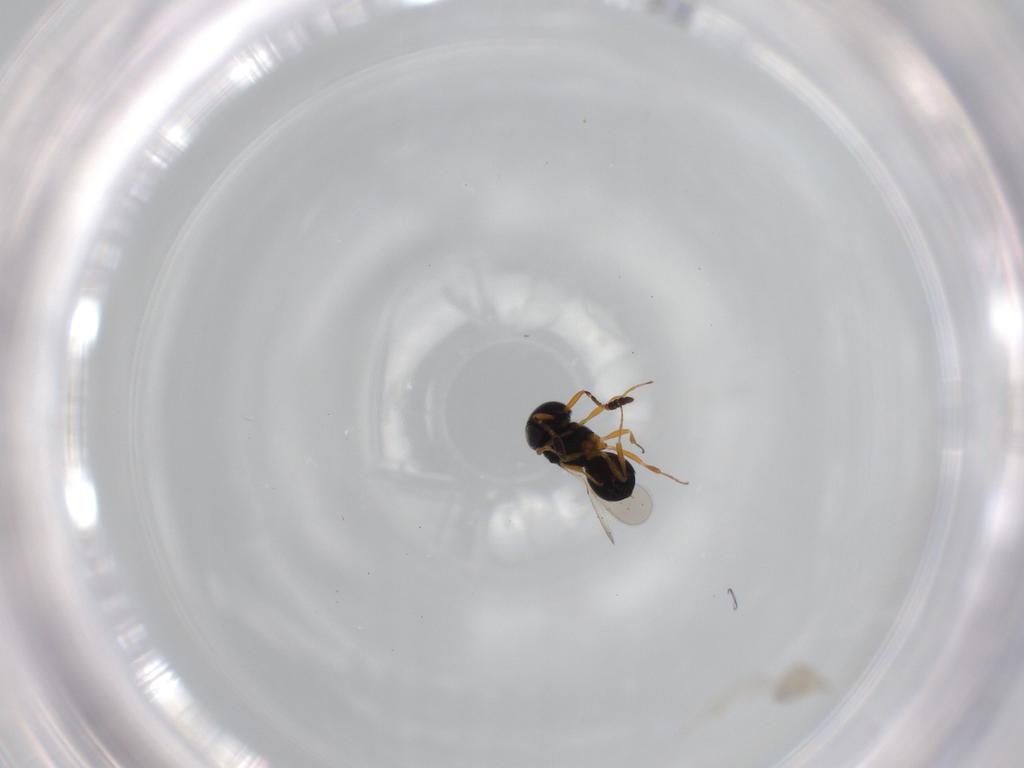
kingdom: Animalia
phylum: Arthropoda
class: Insecta
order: Hymenoptera
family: Scelionidae
